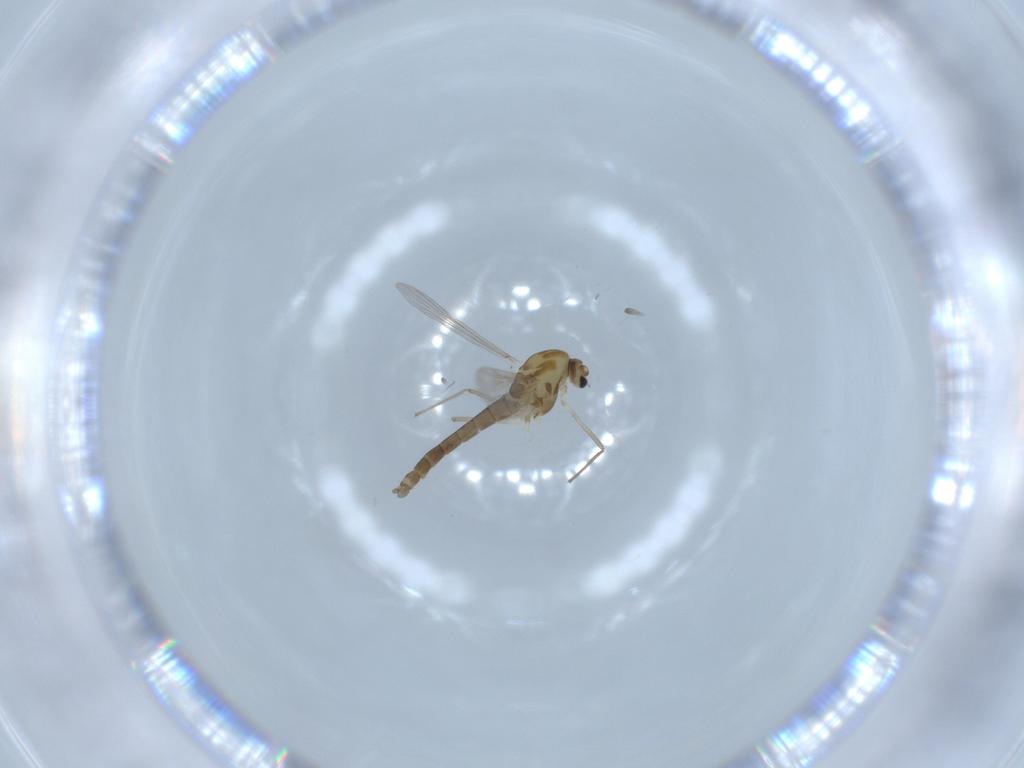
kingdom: Animalia
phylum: Arthropoda
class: Insecta
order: Diptera
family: Chironomidae
